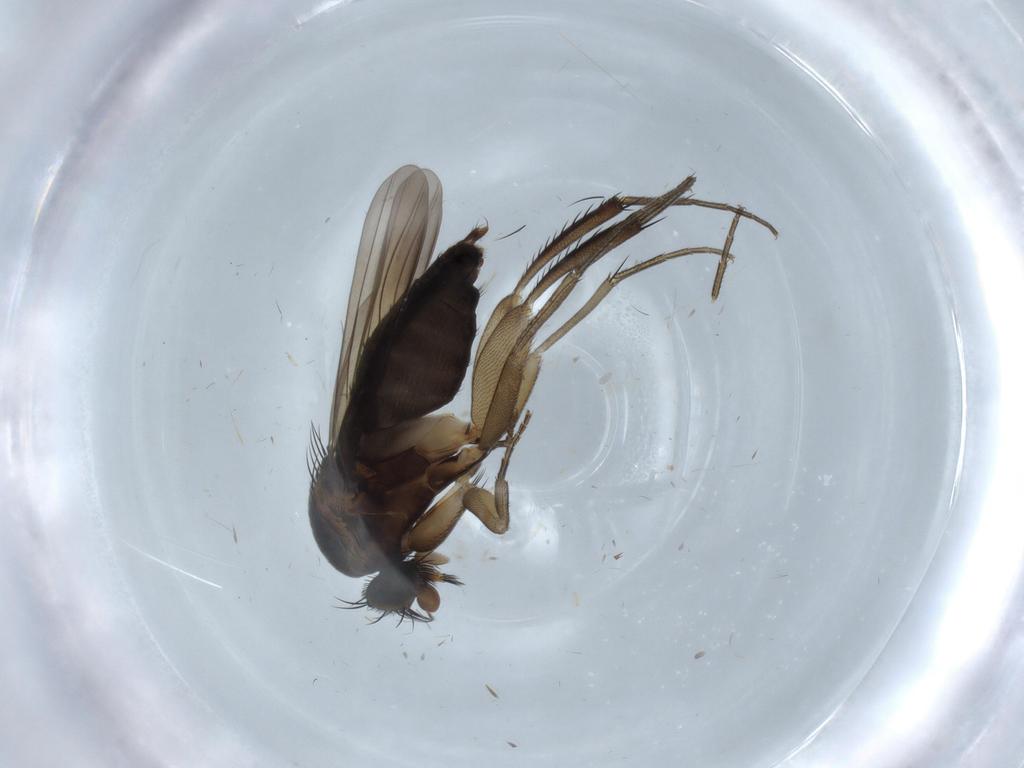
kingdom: Animalia
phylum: Arthropoda
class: Insecta
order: Diptera
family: Phoridae
